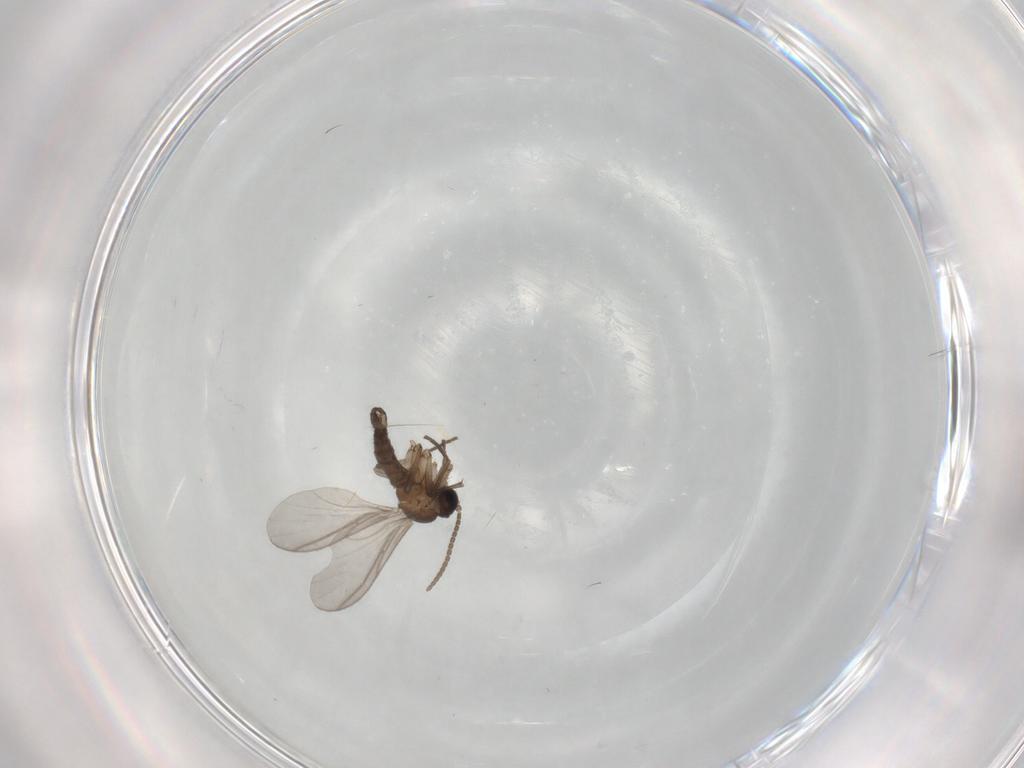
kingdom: Animalia
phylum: Arthropoda
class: Insecta
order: Diptera
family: Sciaridae
